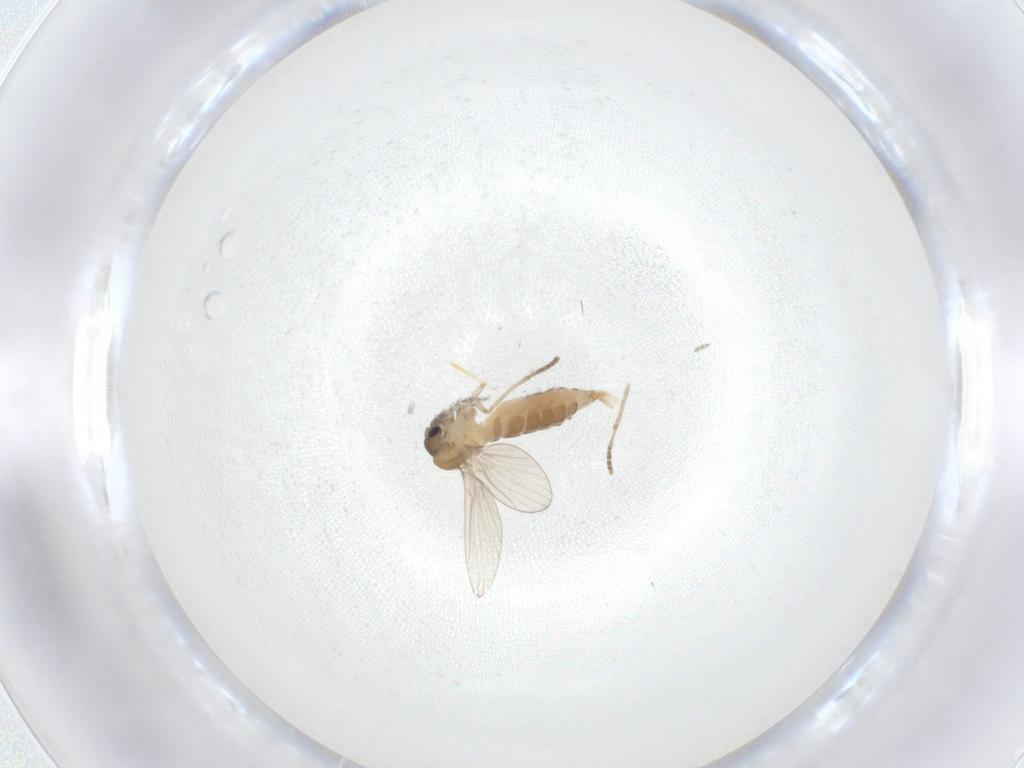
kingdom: Animalia
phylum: Arthropoda
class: Insecta
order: Diptera
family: Psychodidae
